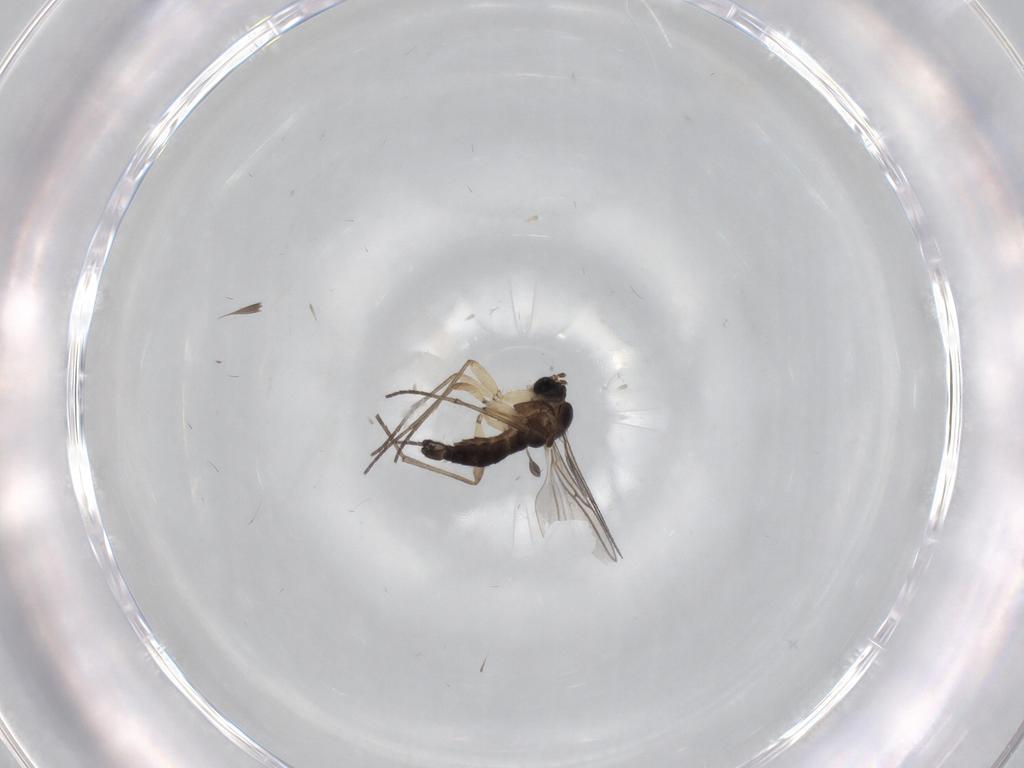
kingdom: Animalia
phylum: Arthropoda
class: Insecta
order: Diptera
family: Sciaridae
